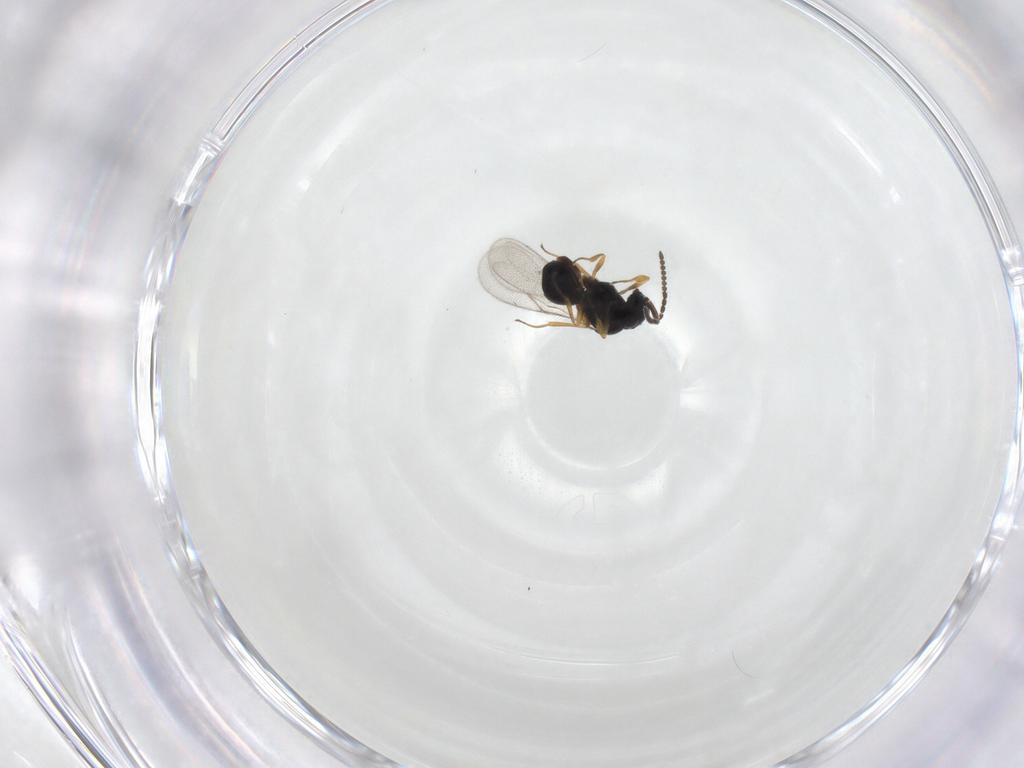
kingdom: Animalia
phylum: Arthropoda
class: Insecta
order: Hymenoptera
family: Scelionidae
